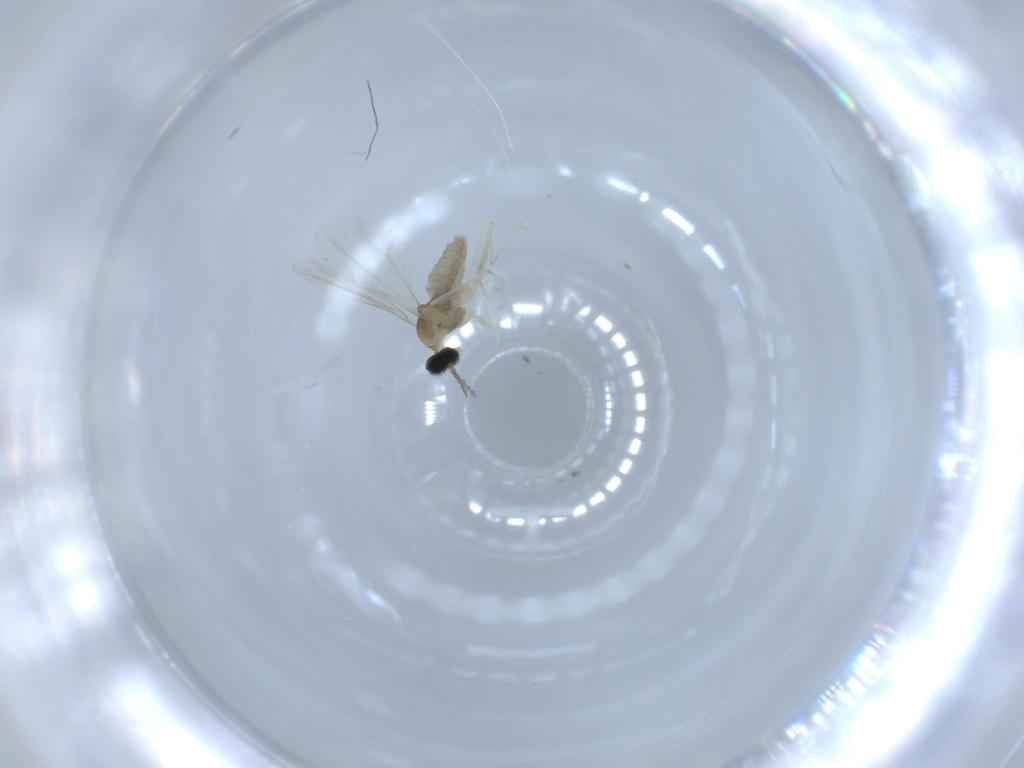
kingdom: Animalia
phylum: Arthropoda
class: Insecta
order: Diptera
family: Cecidomyiidae
